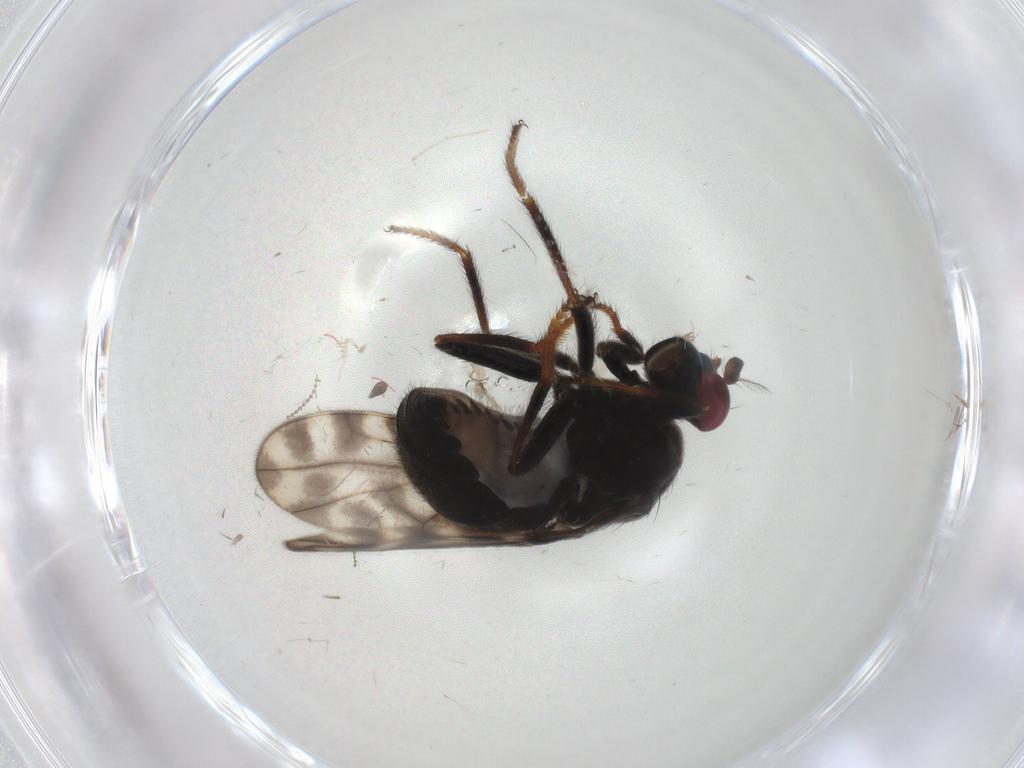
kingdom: Animalia
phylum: Arthropoda
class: Insecta
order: Diptera
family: Ephydridae
